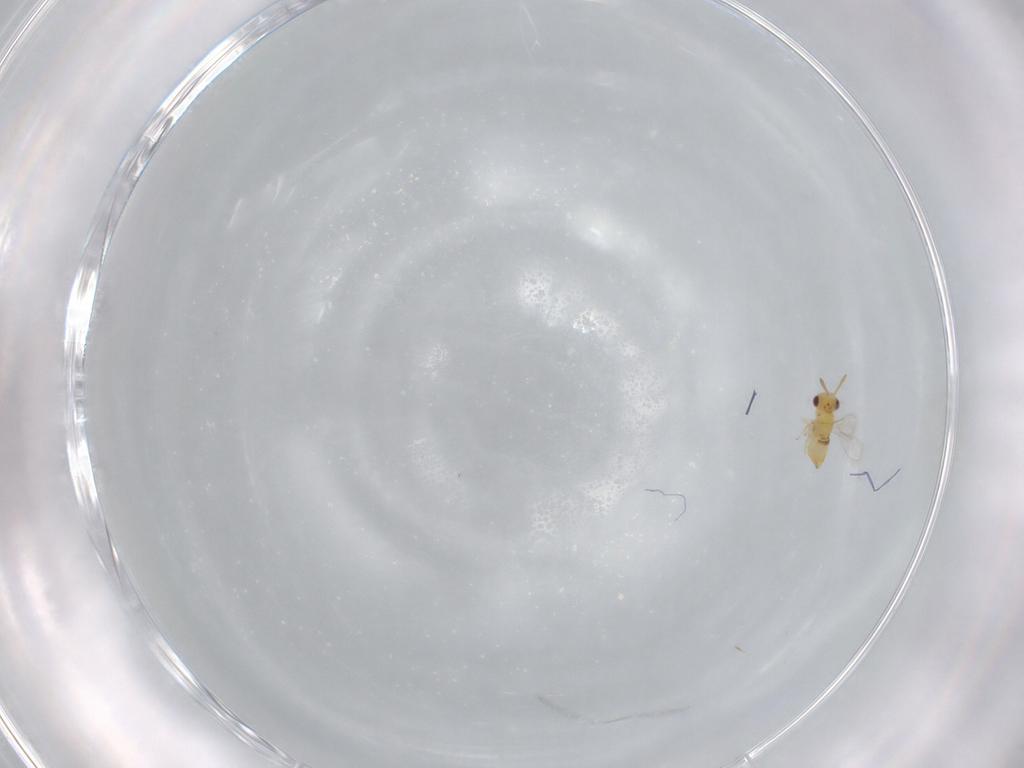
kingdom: Animalia
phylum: Arthropoda
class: Insecta
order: Hymenoptera
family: Aphelinidae
